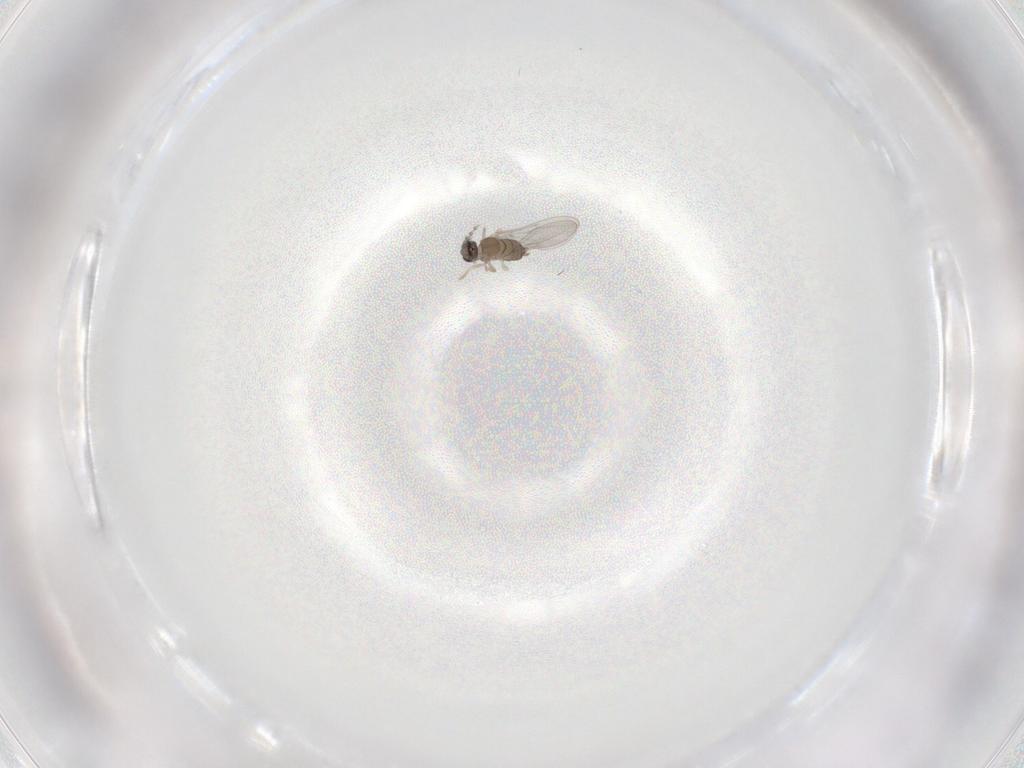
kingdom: Animalia
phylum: Arthropoda
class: Insecta
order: Diptera
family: Cecidomyiidae
